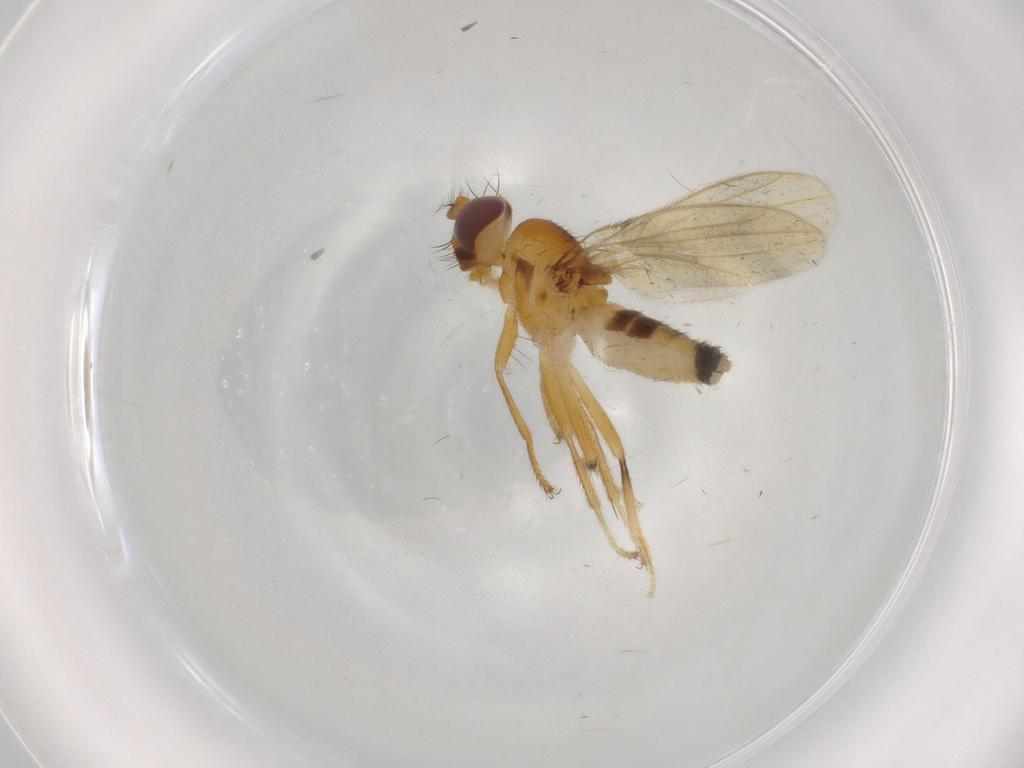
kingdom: Animalia
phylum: Arthropoda
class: Insecta
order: Diptera
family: Periscelididae
